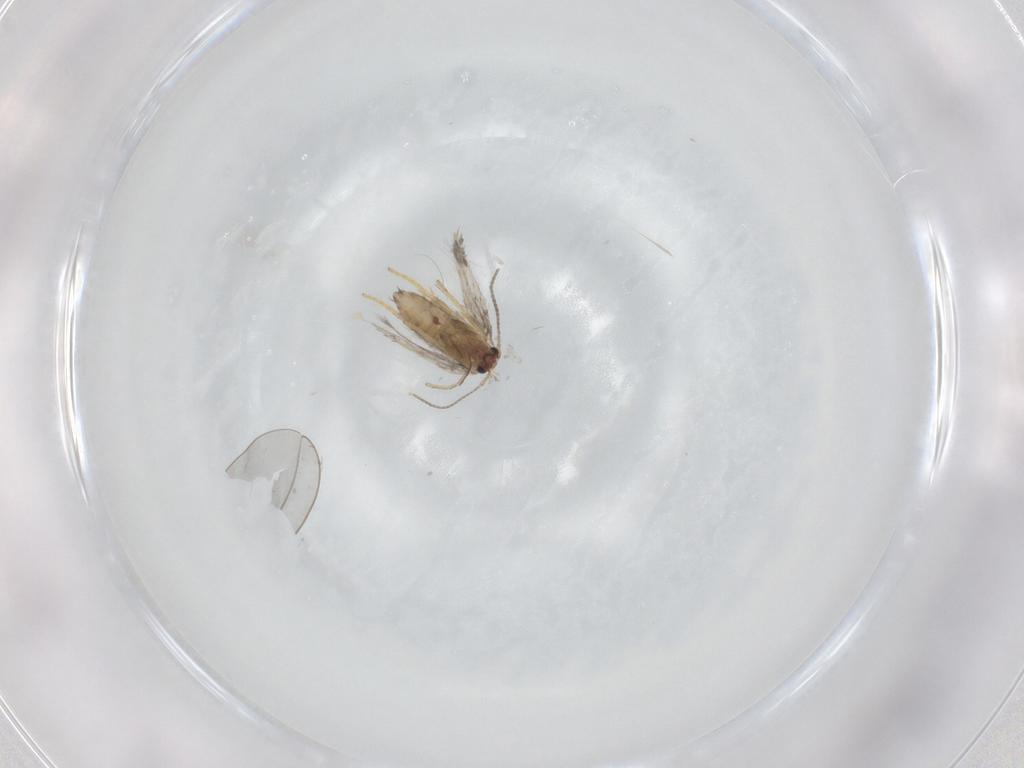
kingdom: Animalia
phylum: Arthropoda
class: Insecta
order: Lepidoptera
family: Nepticulidae
